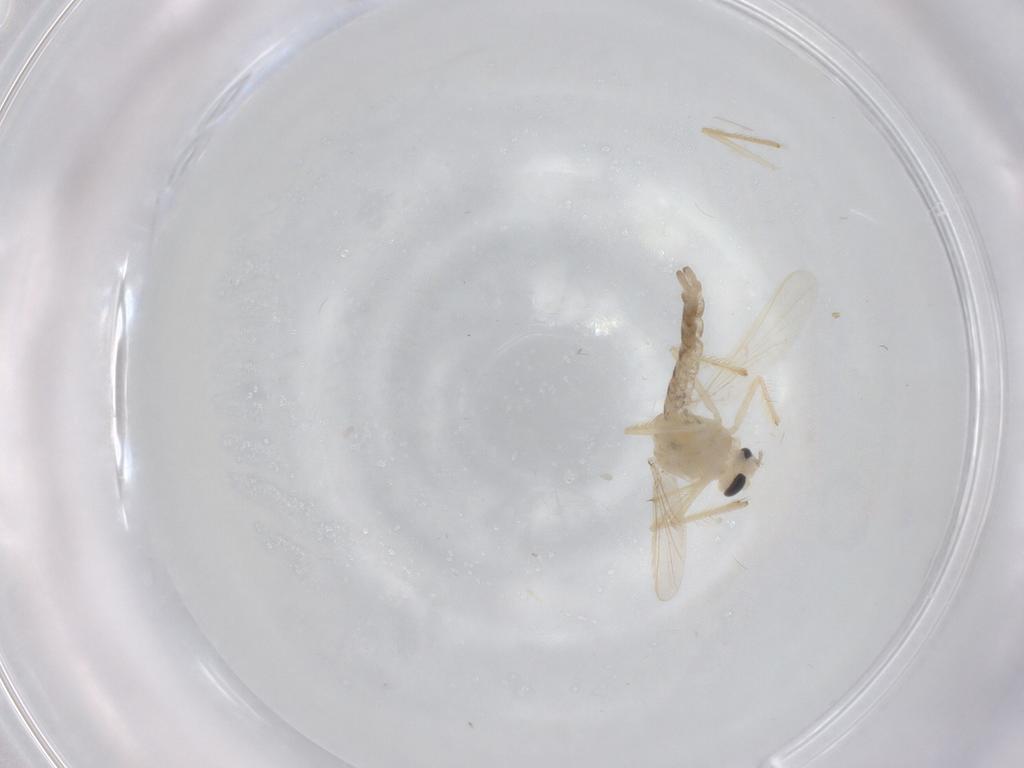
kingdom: Animalia
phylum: Arthropoda
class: Insecta
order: Diptera
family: Chironomidae
